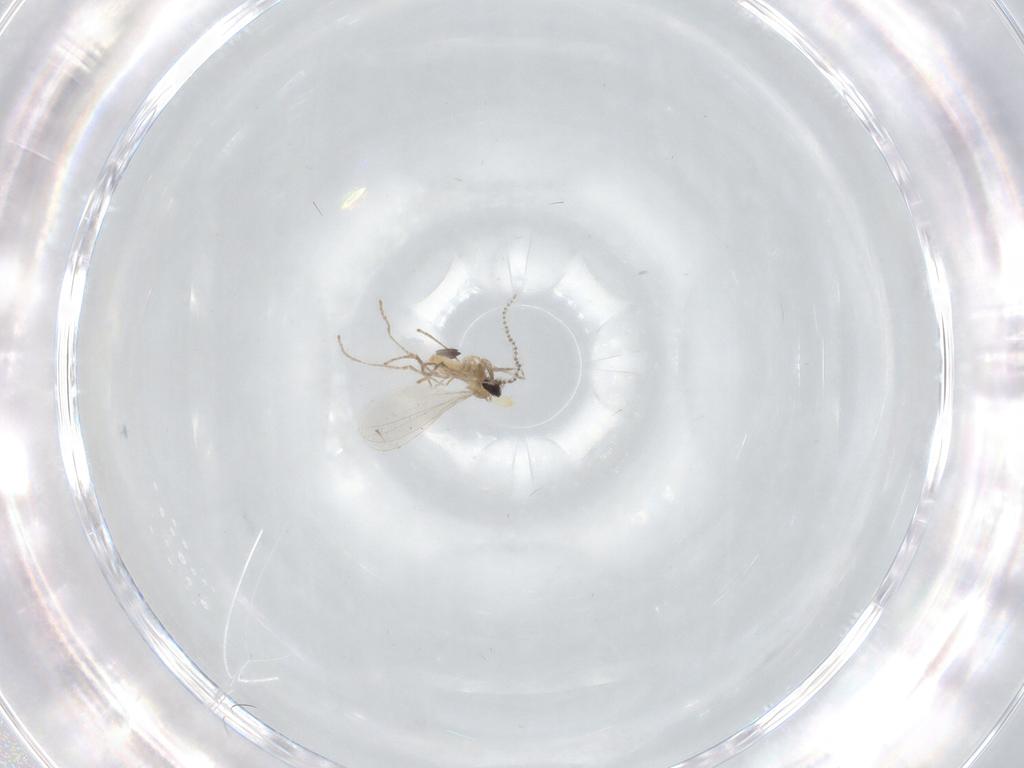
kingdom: Animalia
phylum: Arthropoda
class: Insecta
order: Diptera
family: Cecidomyiidae
